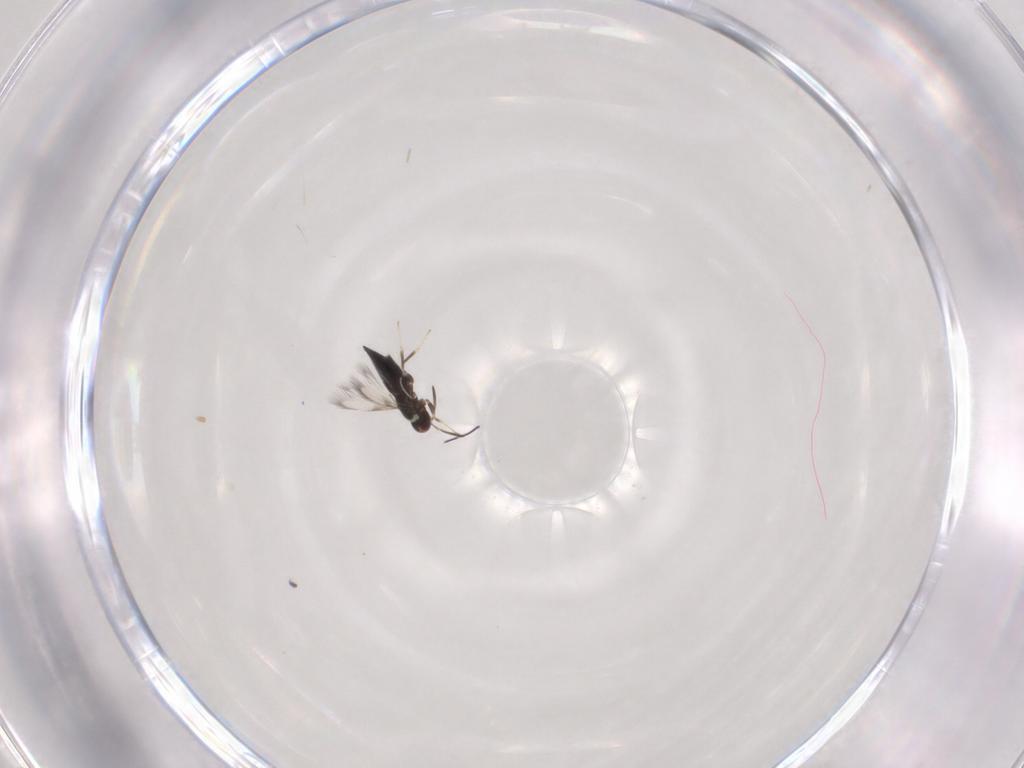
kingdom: Animalia
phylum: Arthropoda
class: Insecta
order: Hymenoptera
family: Signiphoridae
